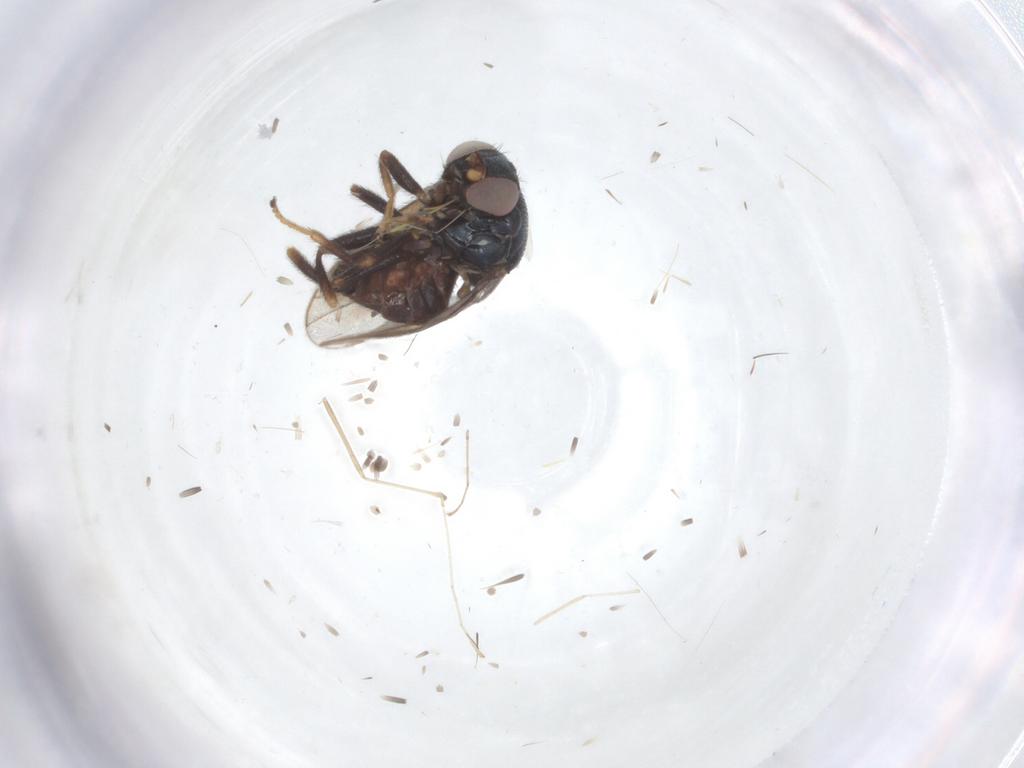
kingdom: Animalia
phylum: Arthropoda
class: Insecta
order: Diptera
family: Chloropidae
